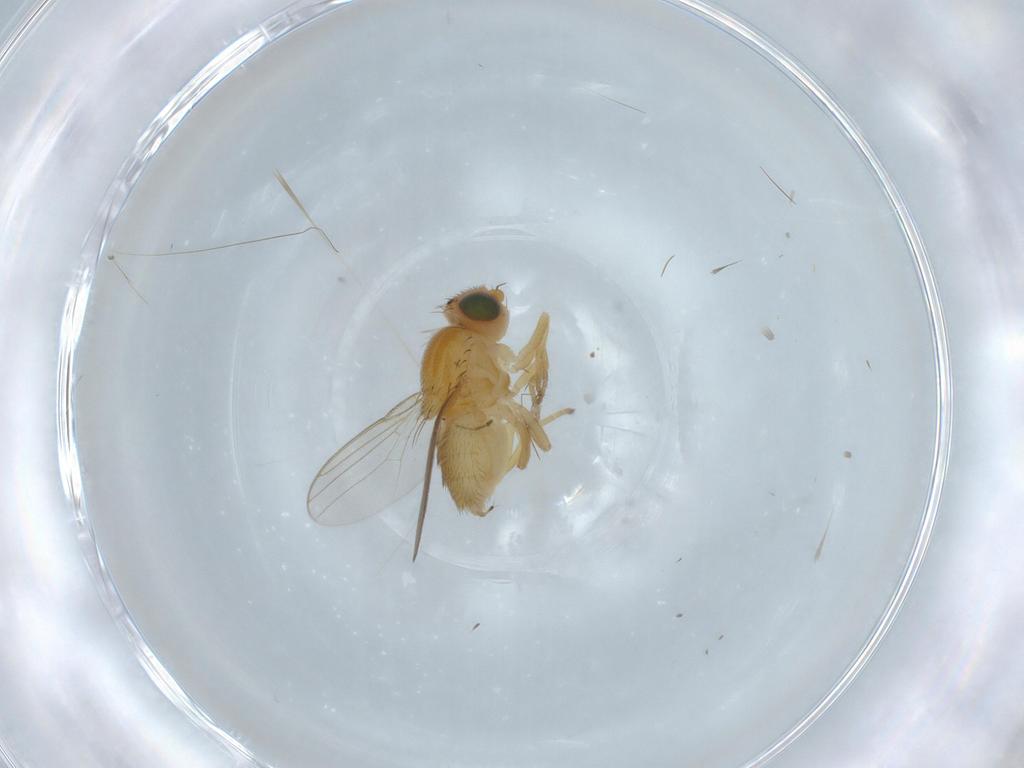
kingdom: Animalia
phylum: Arthropoda
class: Insecta
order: Diptera
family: Chloropidae
